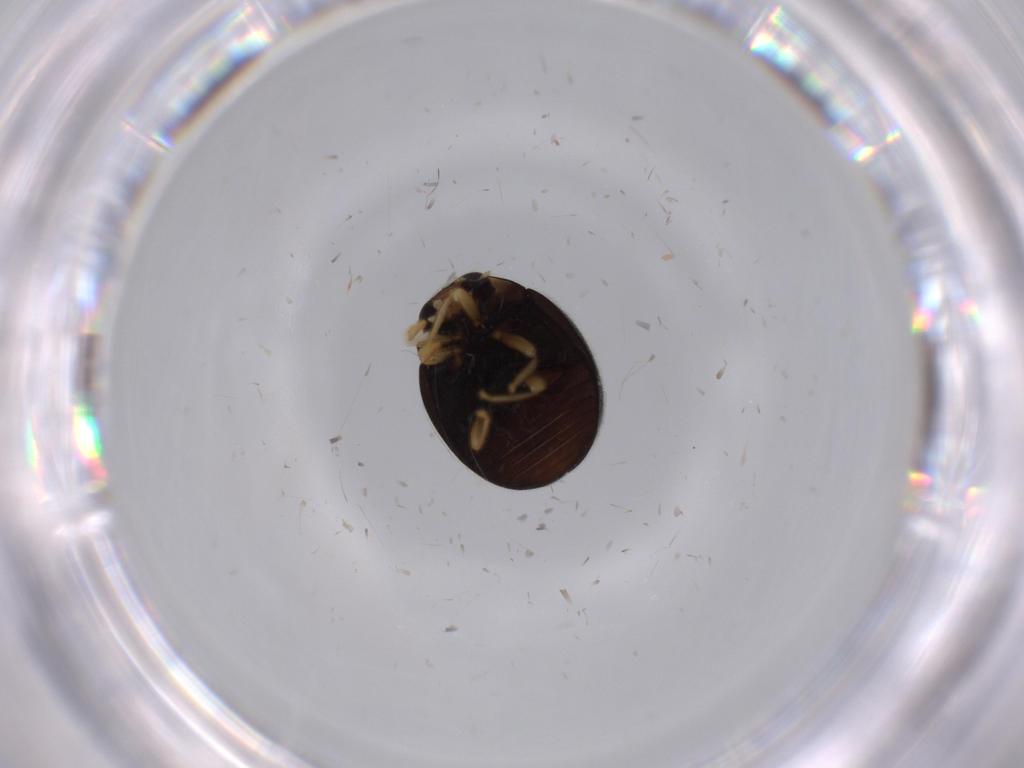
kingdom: Animalia
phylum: Arthropoda
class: Insecta
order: Coleoptera
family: Coccinellidae
